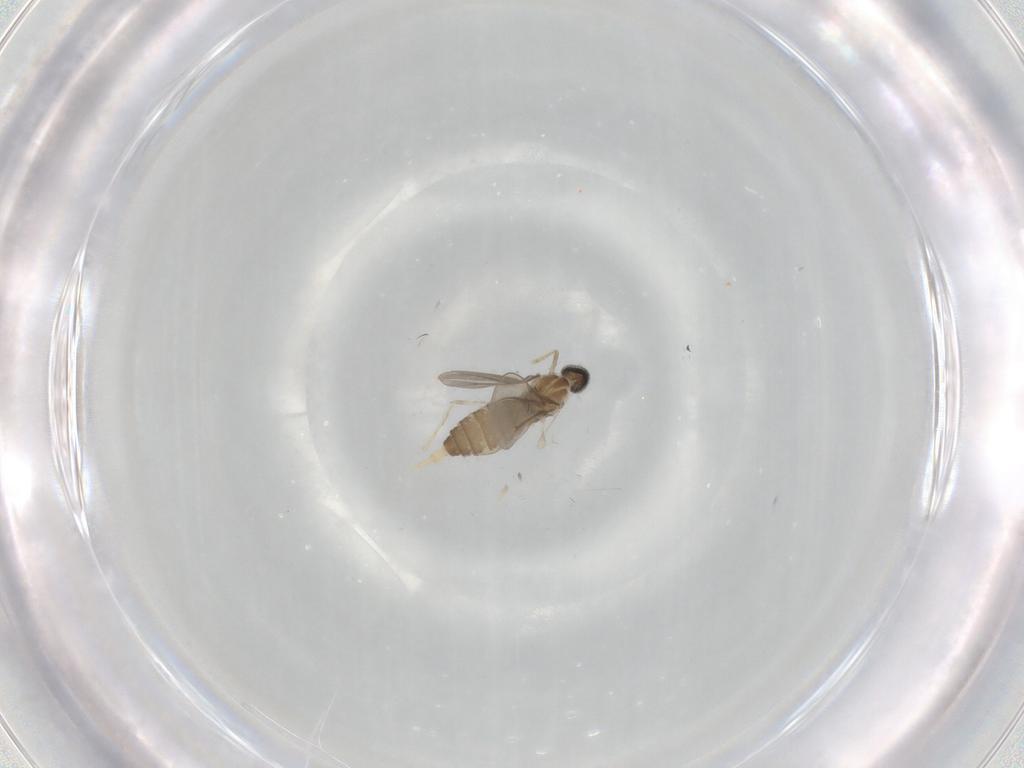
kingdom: Animalia
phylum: Arthropoda
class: Insecta
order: Diptera
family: Cecidomyiidae
